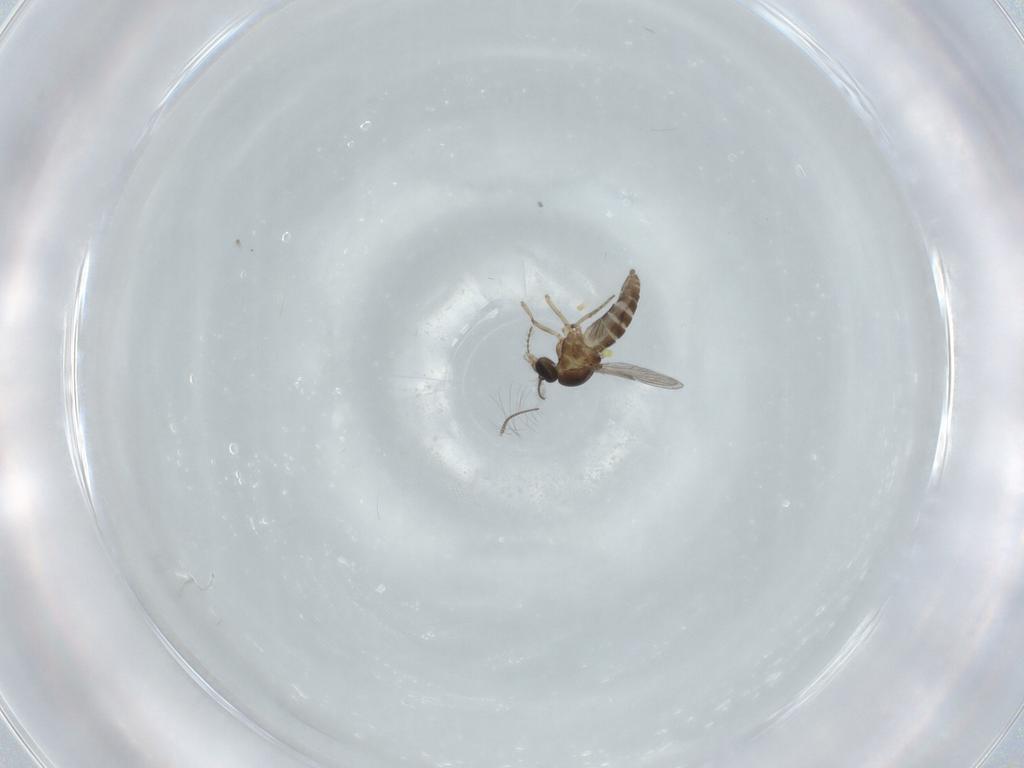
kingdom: Animalia
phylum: Arthropoda
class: Insecta
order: Diptera
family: Ceratopogonidae
